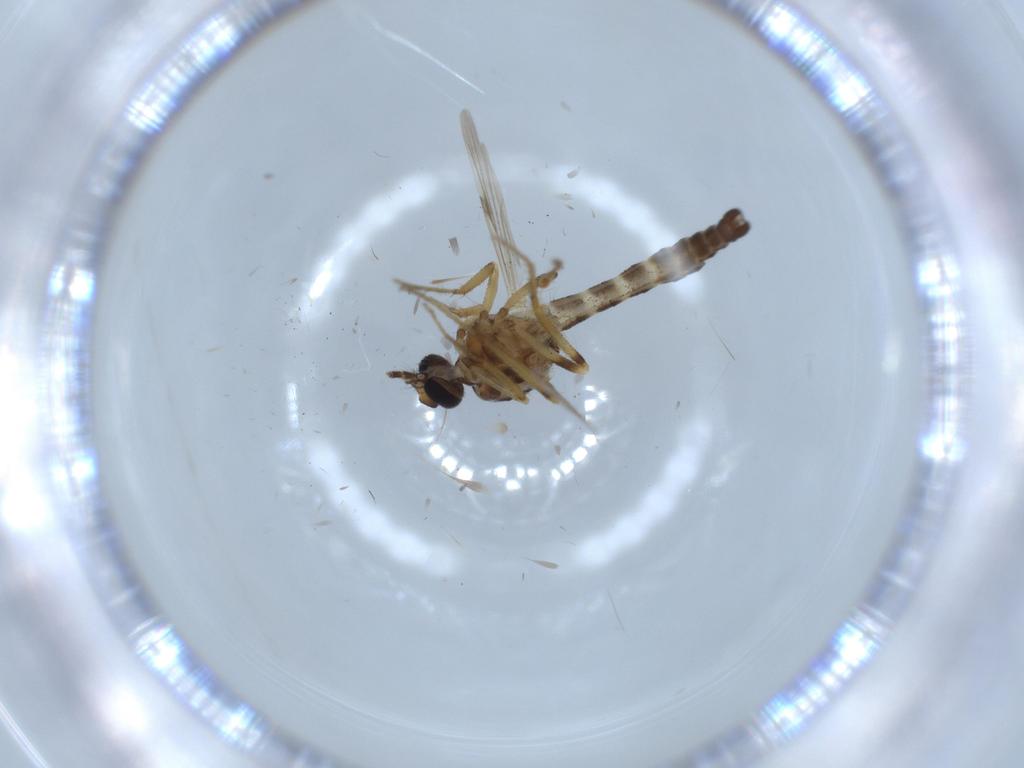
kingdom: Animalia
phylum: Arthropoda
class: Insecta
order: Diptera
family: Ceratopogonidae
